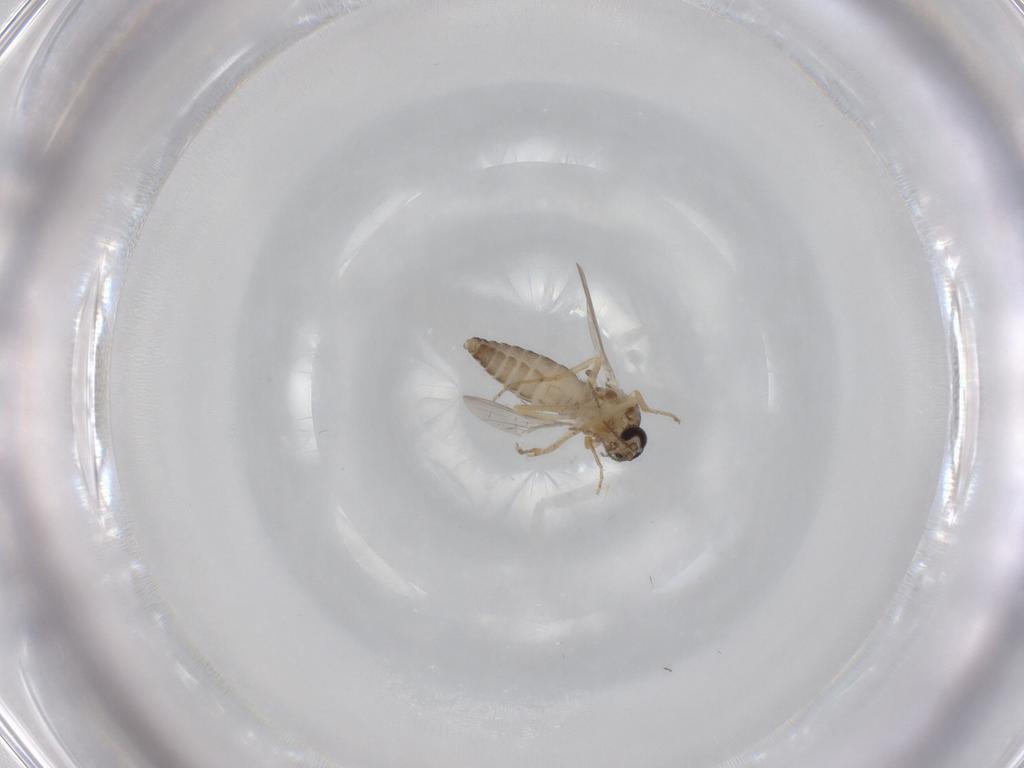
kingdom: Animalia
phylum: Arthropoda
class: Insecta
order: Diptera
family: Ceratopogonidae
